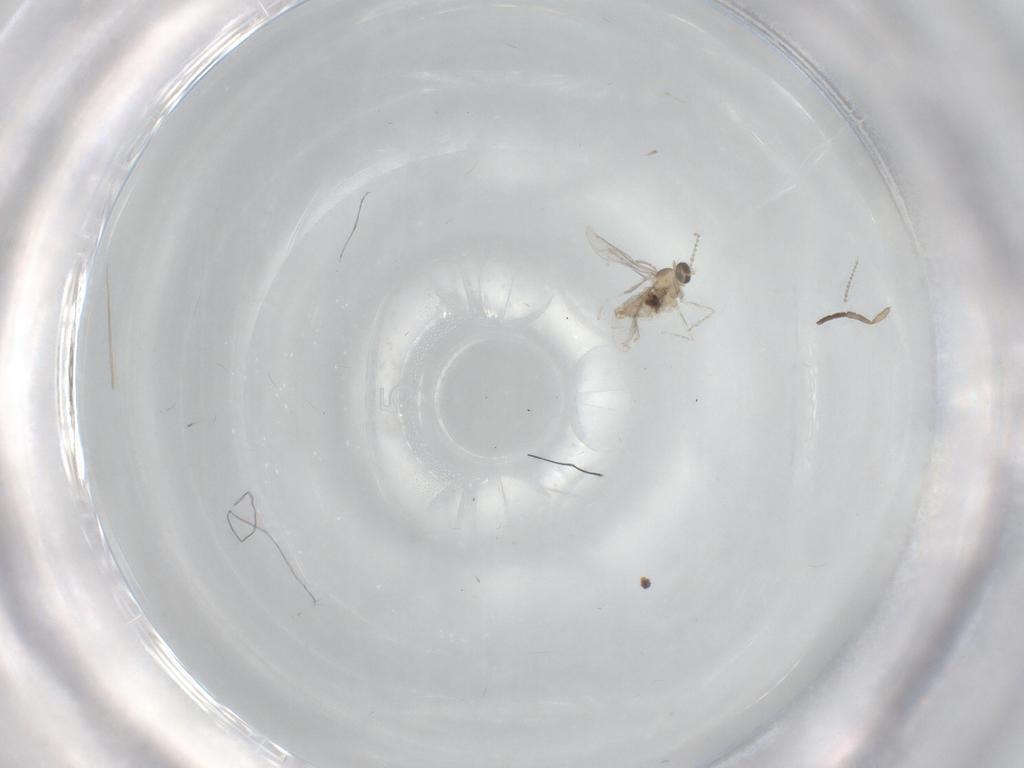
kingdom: Animalia
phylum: Arthropoda
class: Insecta
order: Diptera
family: Cecidomyiidae
